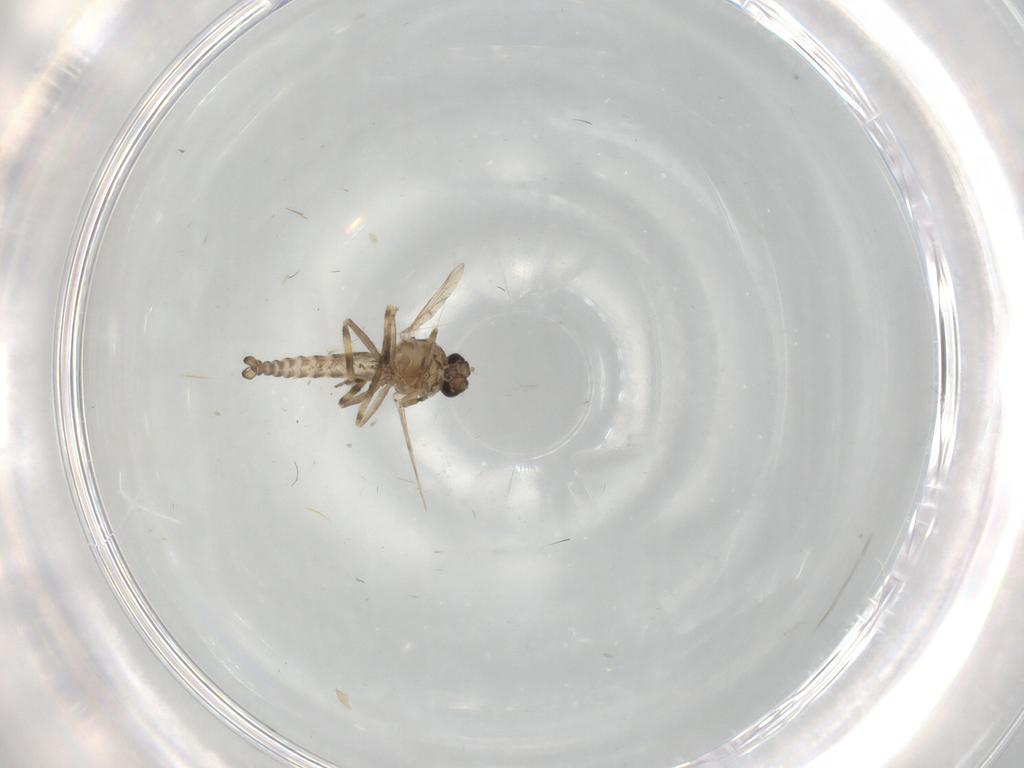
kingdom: Animalia
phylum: Arthropoda
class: Insecta
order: Diptera
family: Ceratopogonidae
